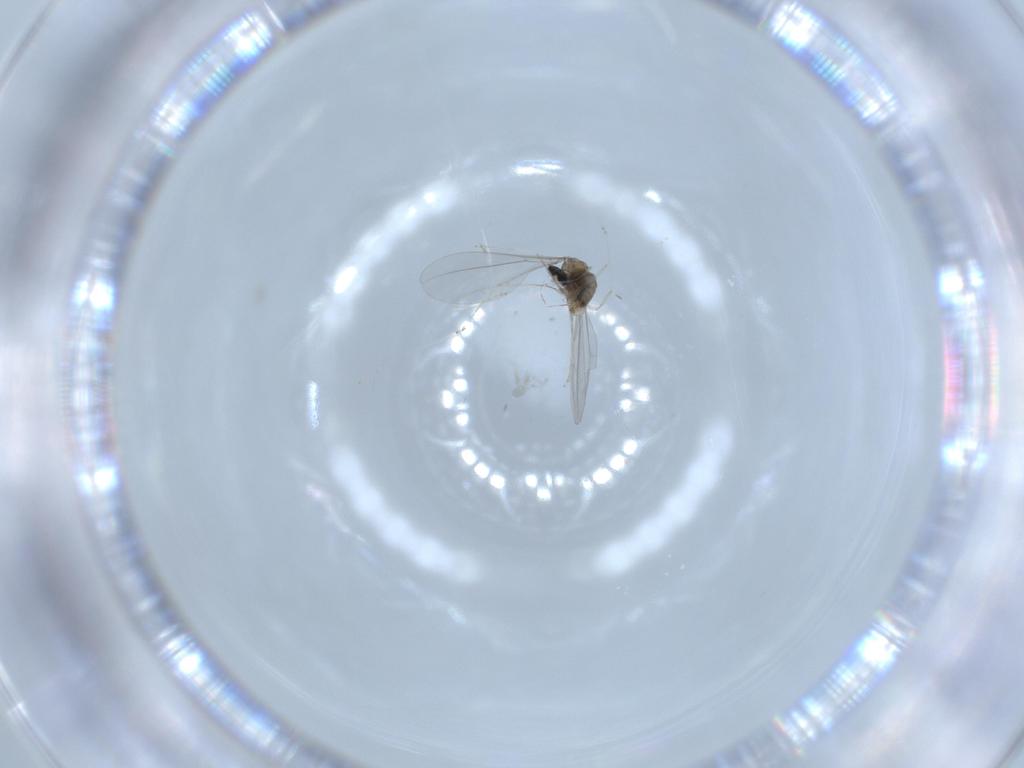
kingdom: Animalia
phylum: Arthropoda
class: Insecta
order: Diptera
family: Cecidomyiidae
